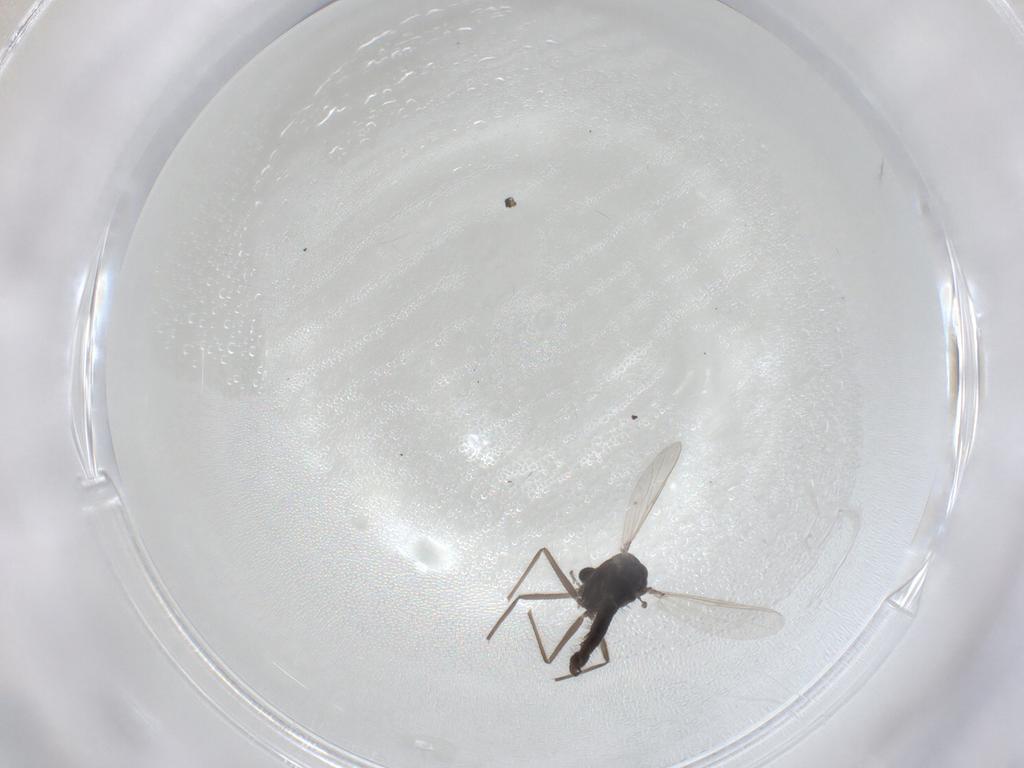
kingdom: Animalia
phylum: Arthropoda
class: Insecta
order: Diptera
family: Chironomidae
